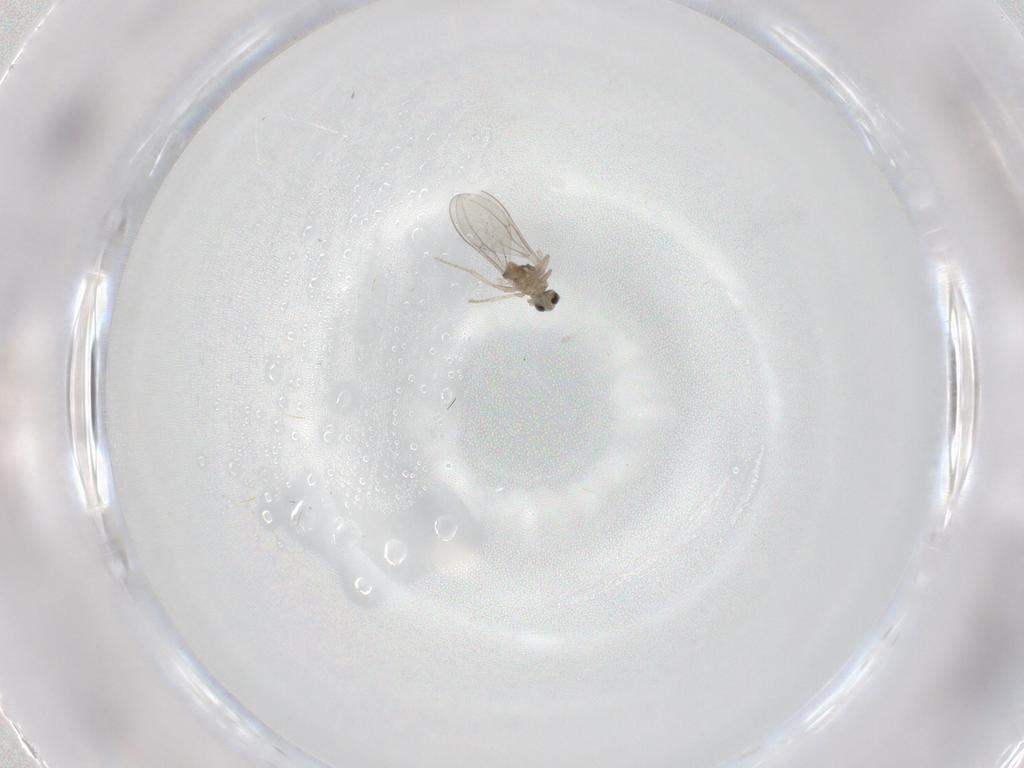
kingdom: Animalia
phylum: Arthropoda
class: Insecta
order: Diptera
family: Cecidomyiidae
